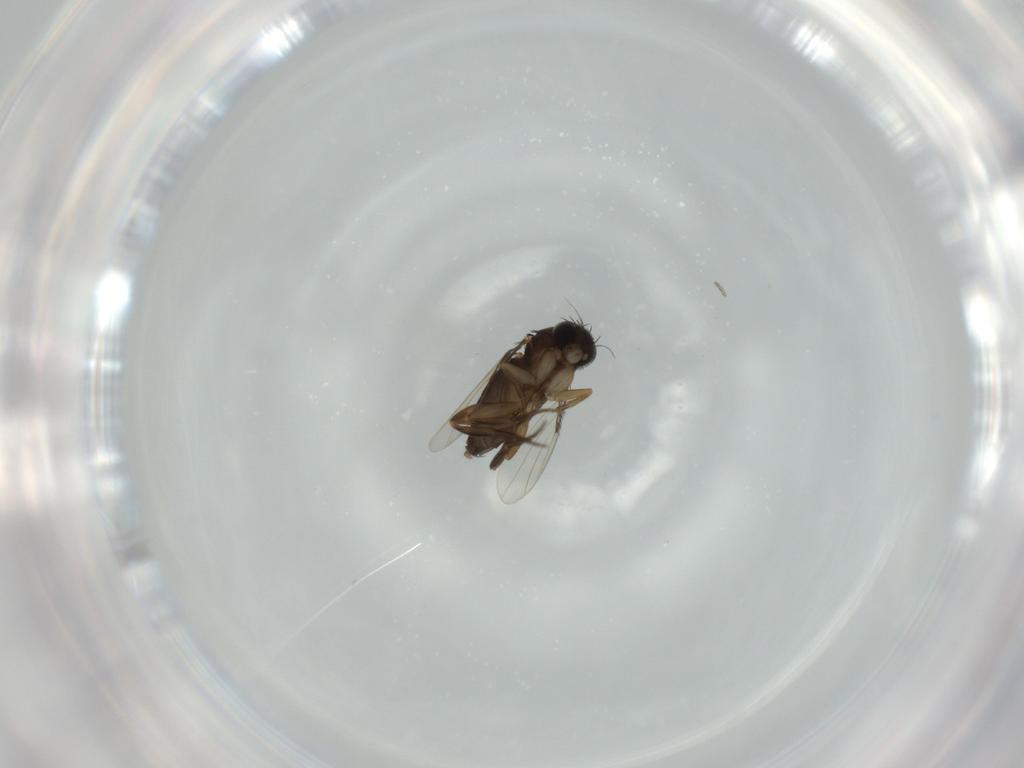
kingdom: Animalia
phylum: Arthropoda
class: Insecta
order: Diptera
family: Phoridae
